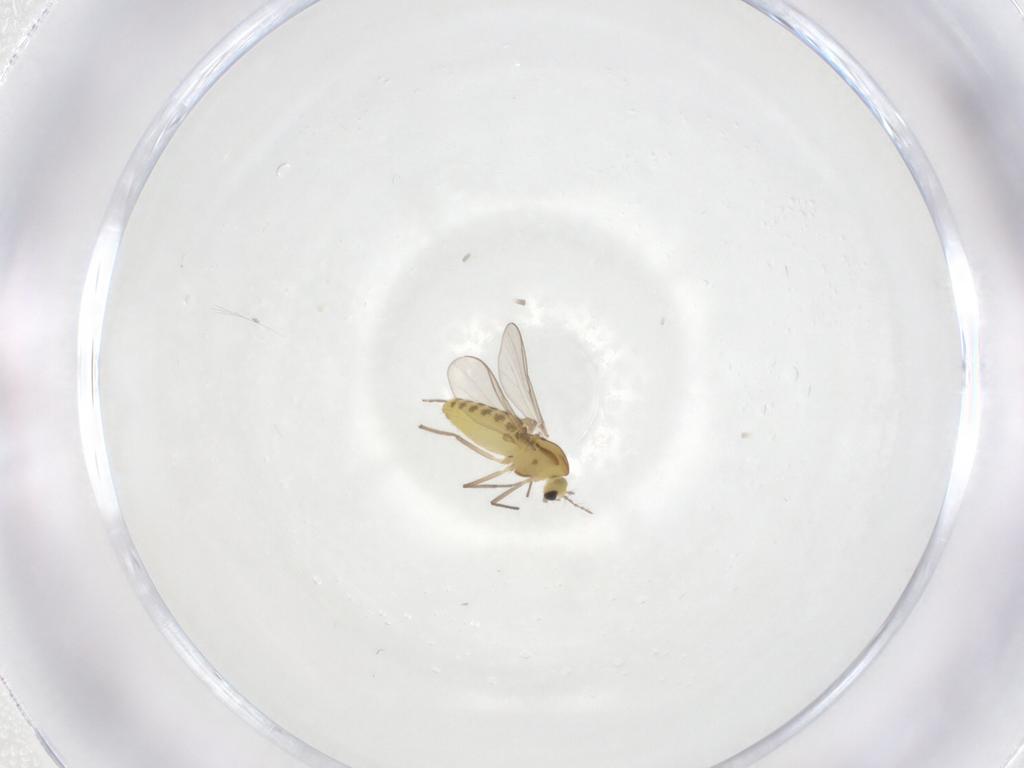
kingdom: Animalia
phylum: Arthropoda
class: Insecta
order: Diptera
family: Chironomidae
